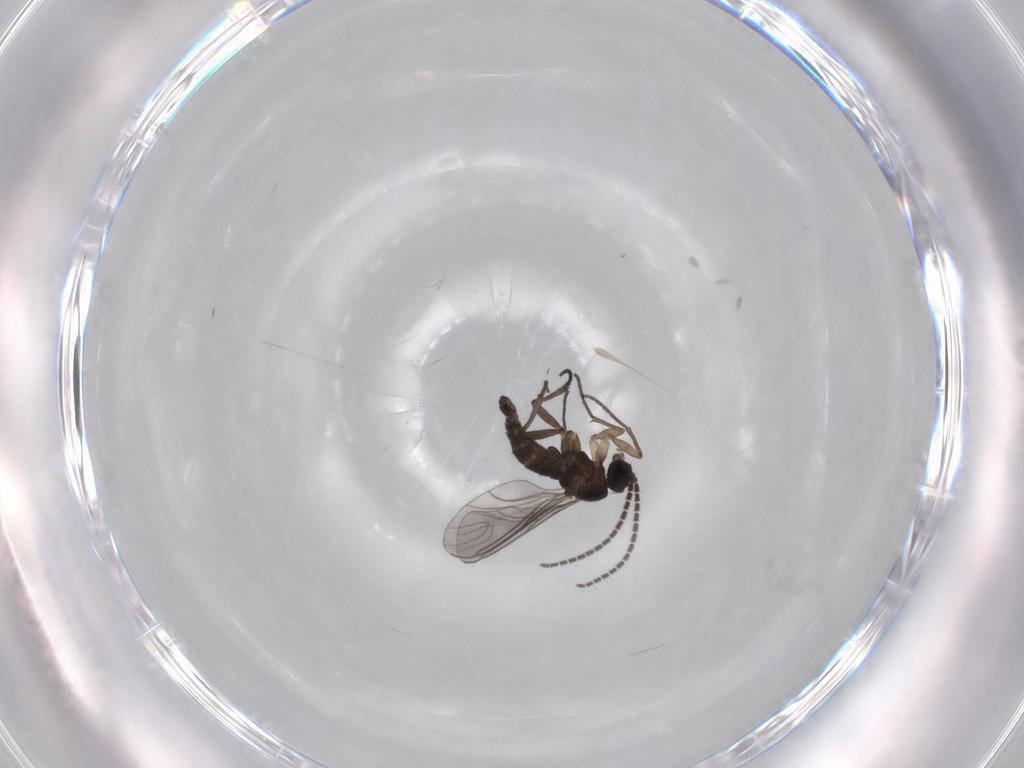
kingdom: Animalia
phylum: Arthropoda
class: Insecta
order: Diptera
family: Sciaridae
